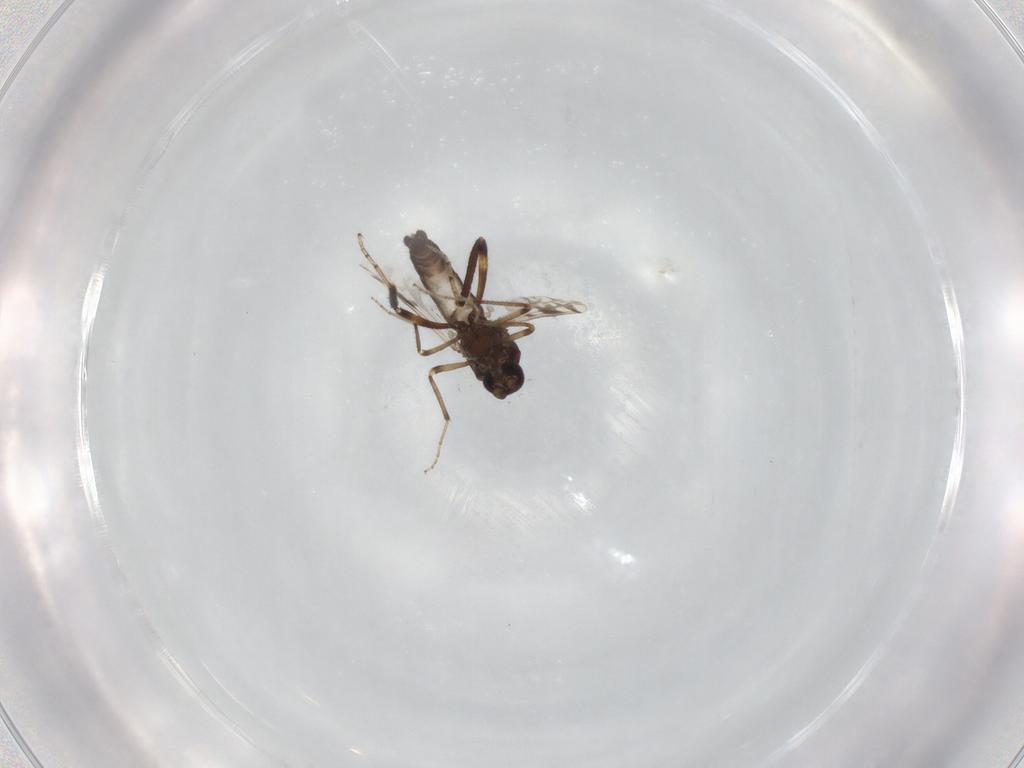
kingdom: Animalia
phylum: Arthropoda
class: Insecta
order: Diptera
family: Ceratopogonidae
